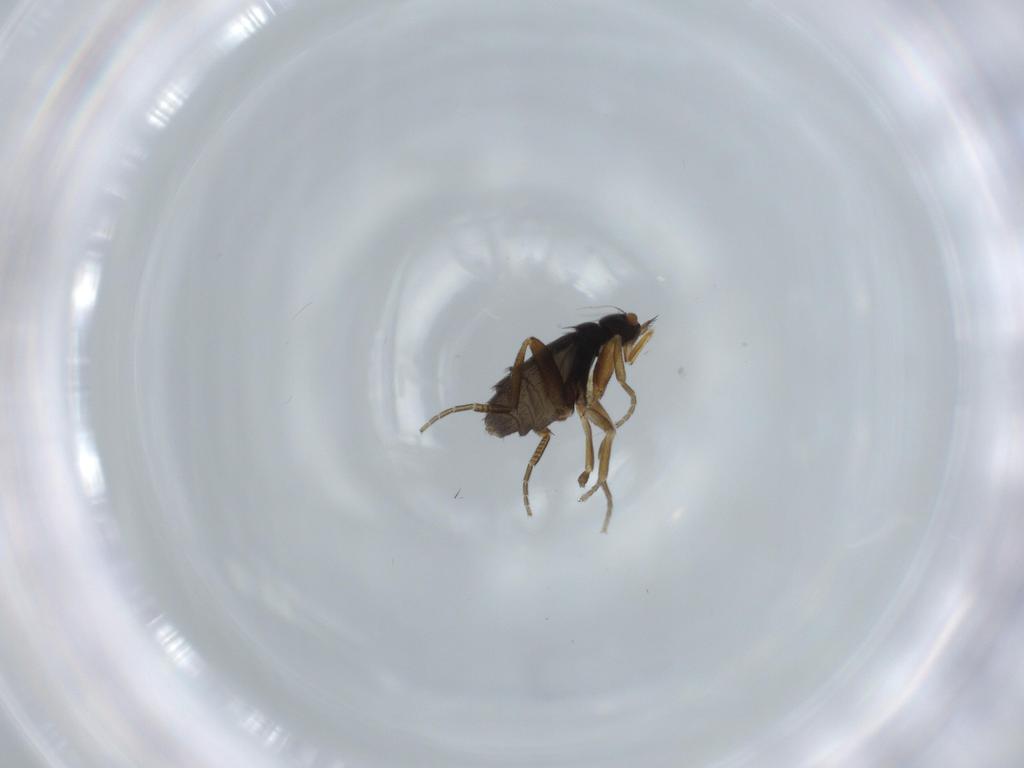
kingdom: Animalia
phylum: Arthropoda
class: Insecta
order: Diptera
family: Phoridae
